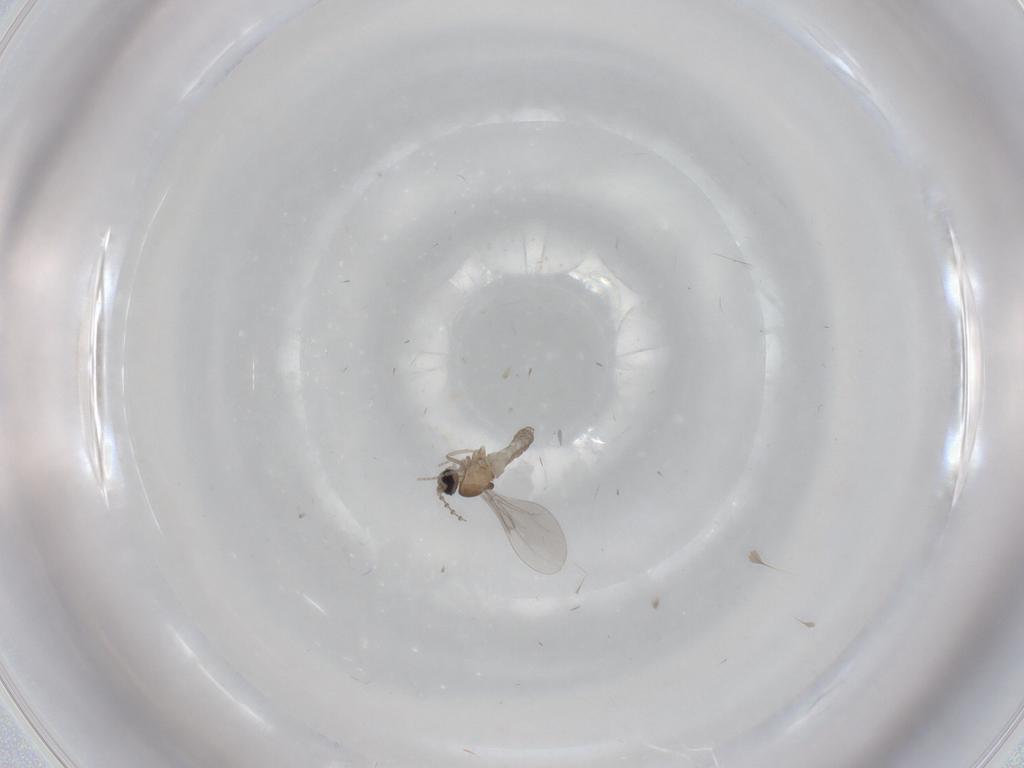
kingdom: Animalia
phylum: Arthropoda
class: Insecta
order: Diptera
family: Cecidomyiidae
